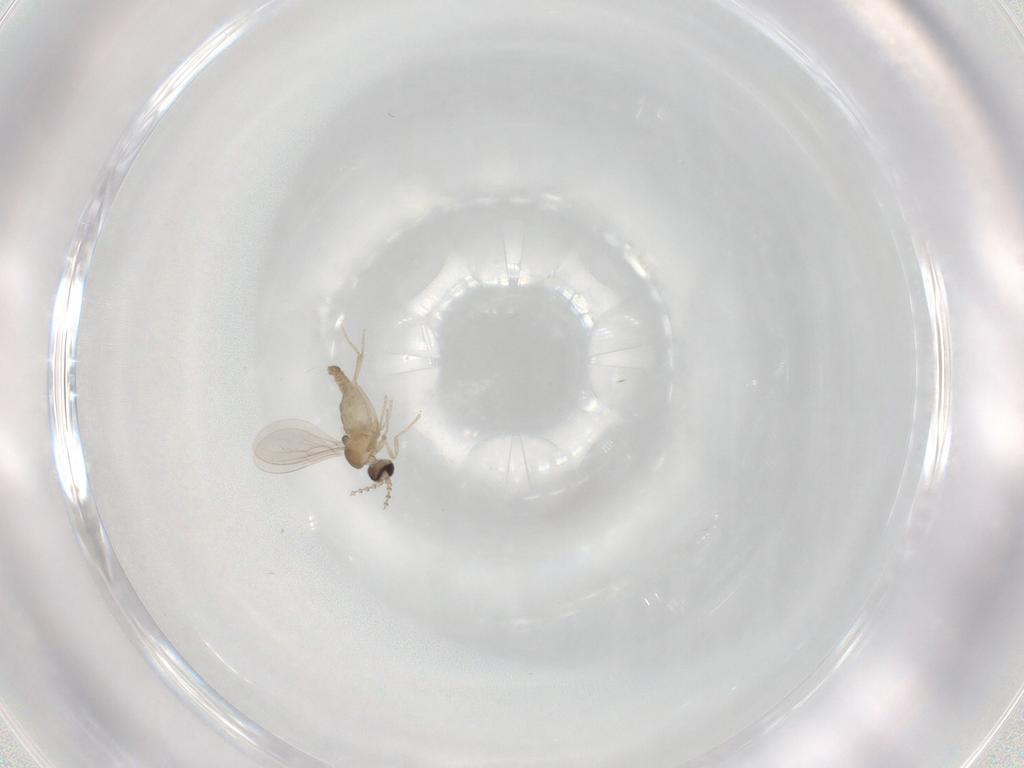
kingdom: Animalia
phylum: Arthropoda
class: Insecta
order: Diptera
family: Cecidomyiidae
